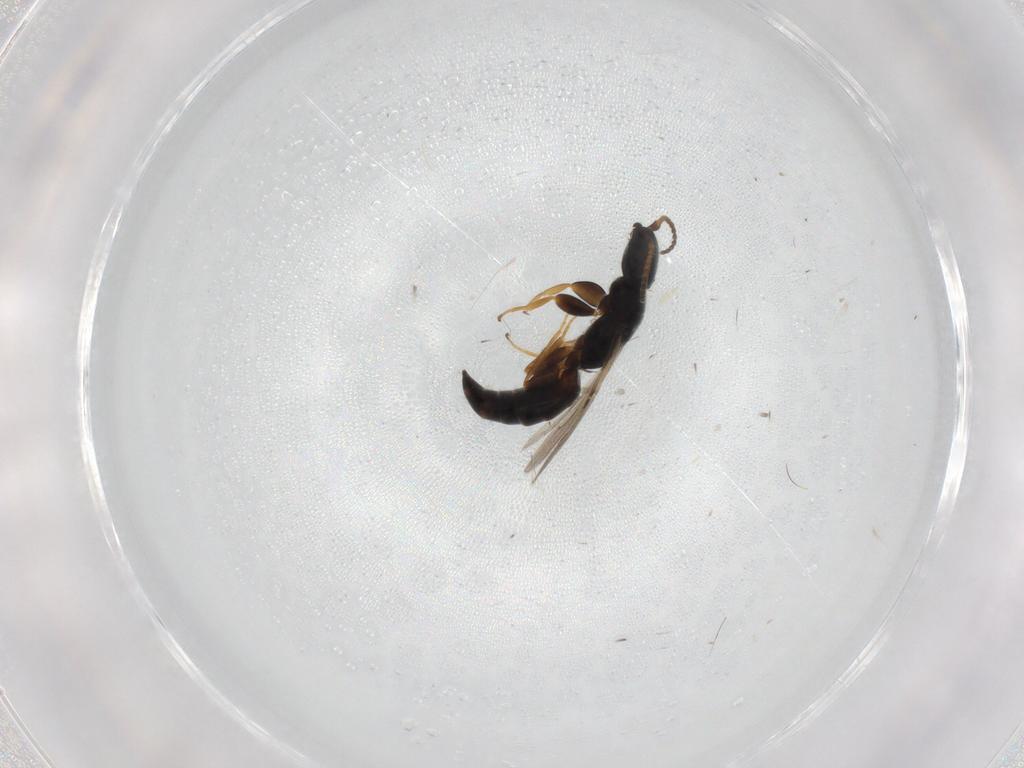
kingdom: Animalia
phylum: Arthropoda
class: Insecta
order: Hymenoptera
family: Bethylidae
